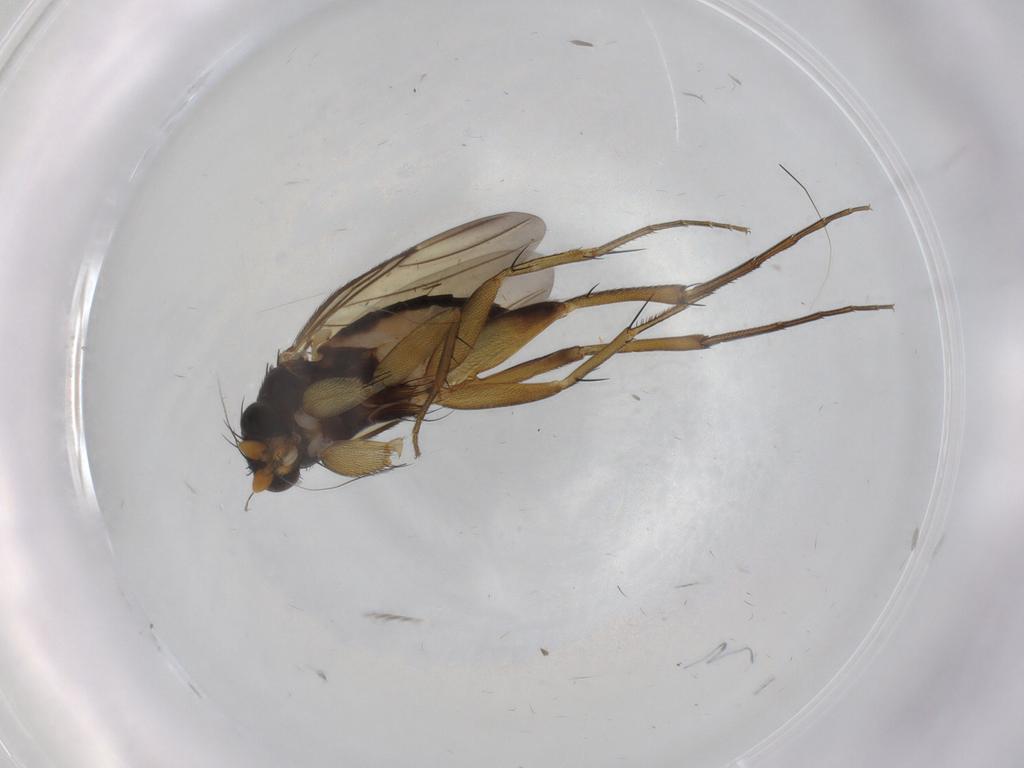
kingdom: Animalia
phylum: Arthropoda
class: Insecta
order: Diptera
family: Phoridae
